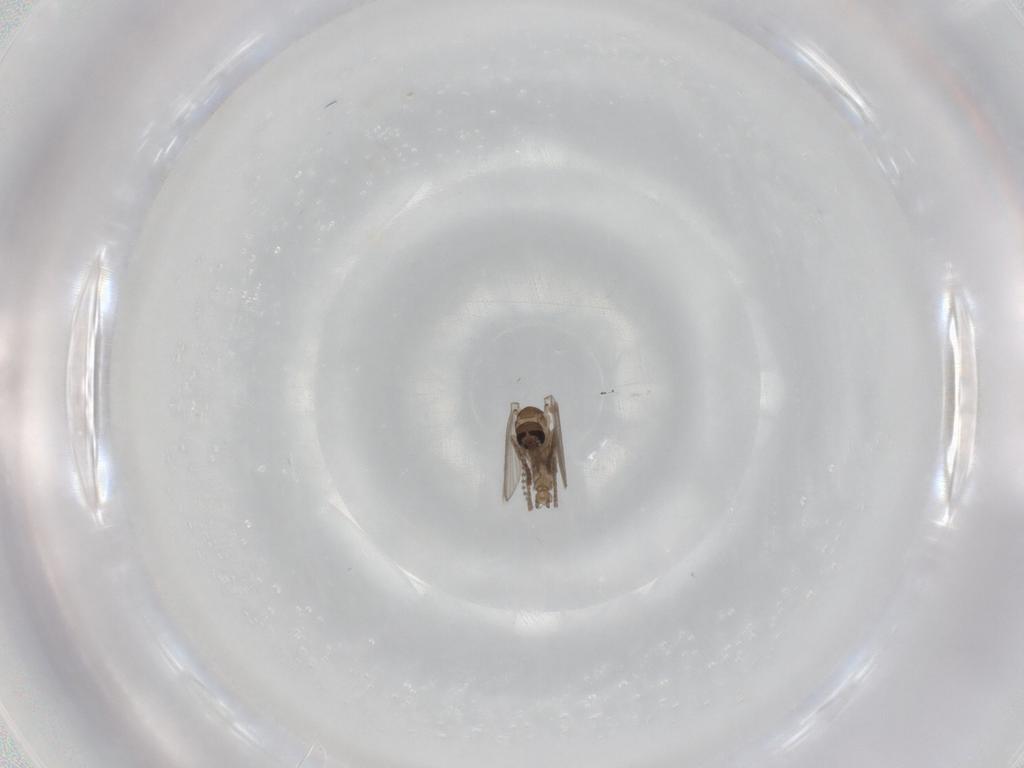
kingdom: Animalia
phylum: Arthropoda
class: Insecta
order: Diptera
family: Psychodidae
